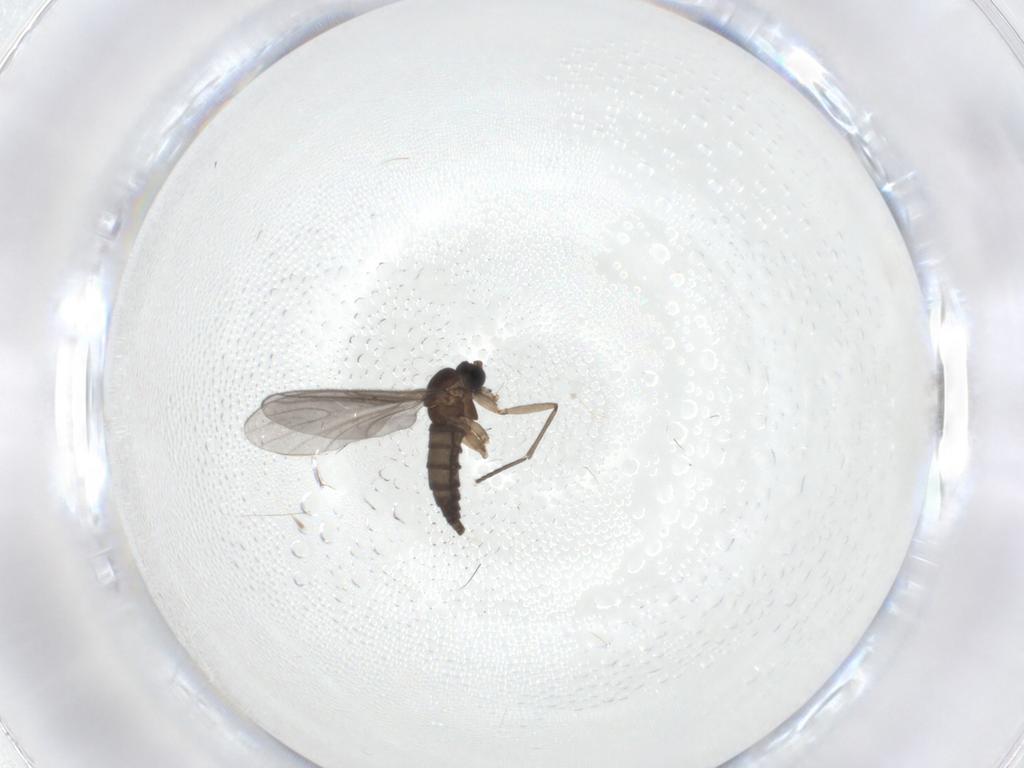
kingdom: Animalia
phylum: Arthropoda
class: Insecta
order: Diptera
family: Sciaridae
